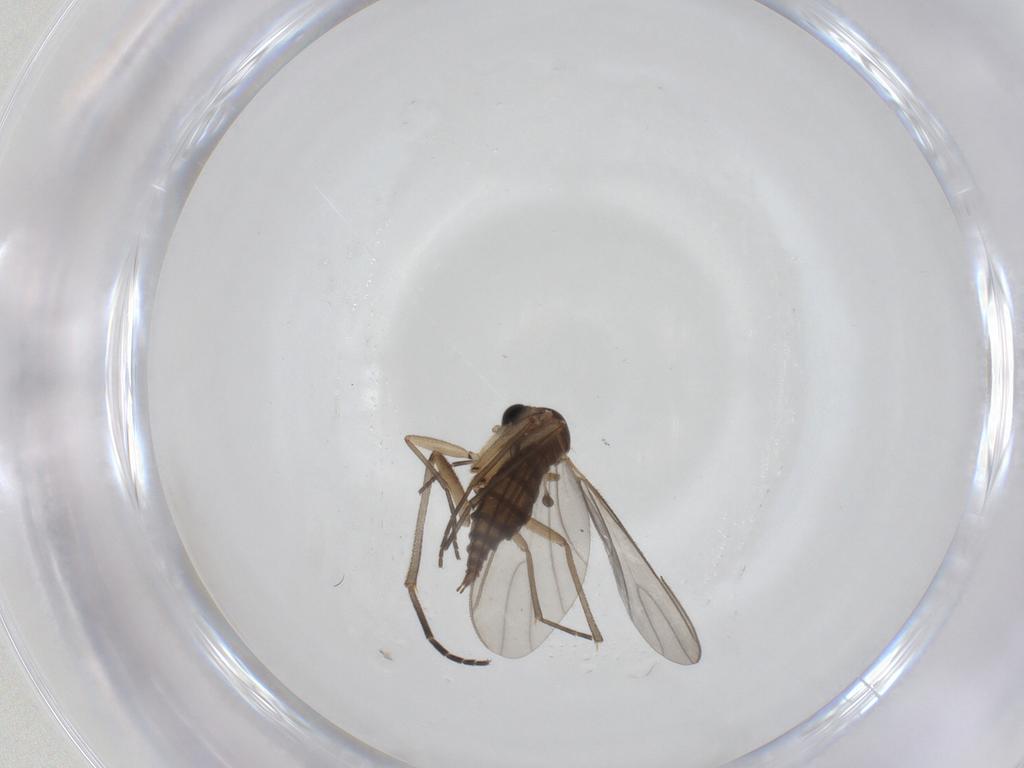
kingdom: Animalia
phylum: Arthropoda
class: Insecta
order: Diptera
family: Sciaridae
